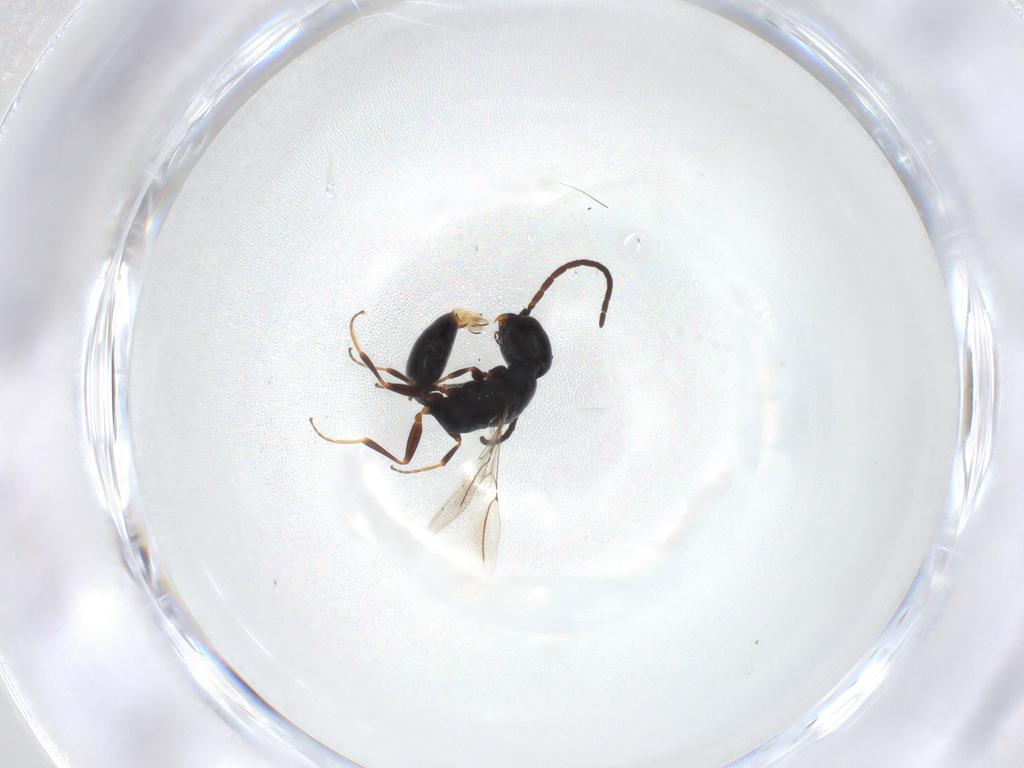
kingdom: Animalia
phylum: Arthropoda
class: Insecta
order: Hymenoptera
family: Bethylidae
